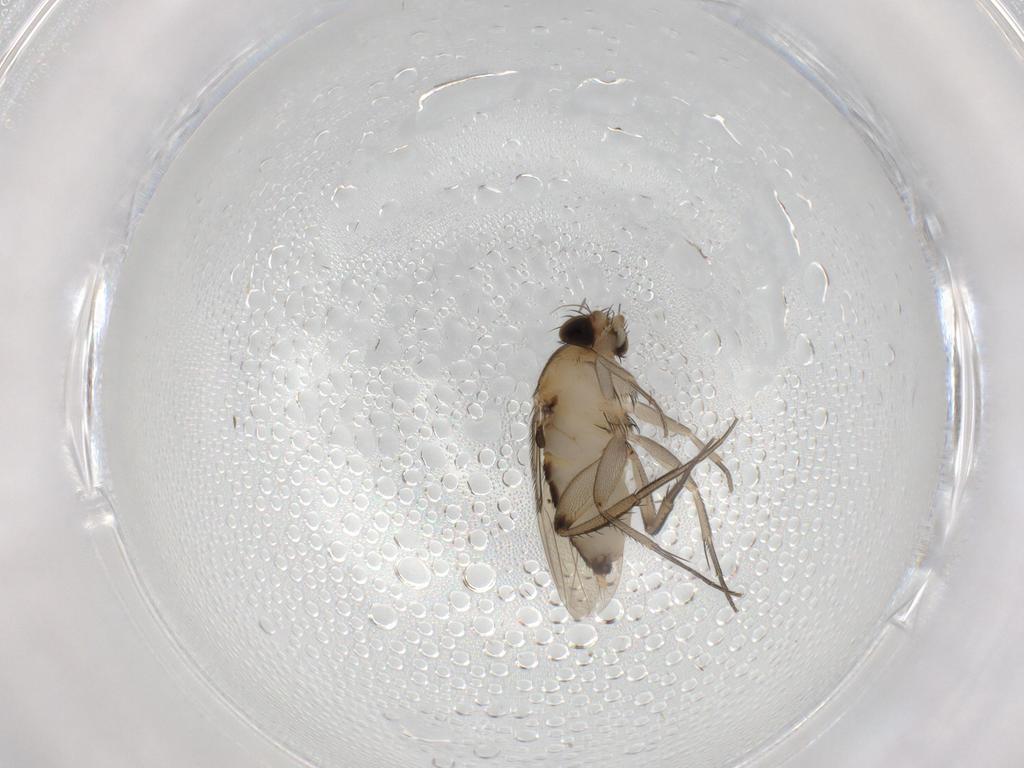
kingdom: Animalia
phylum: Arthropoda
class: Insecta
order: Diptera
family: Phoridae
